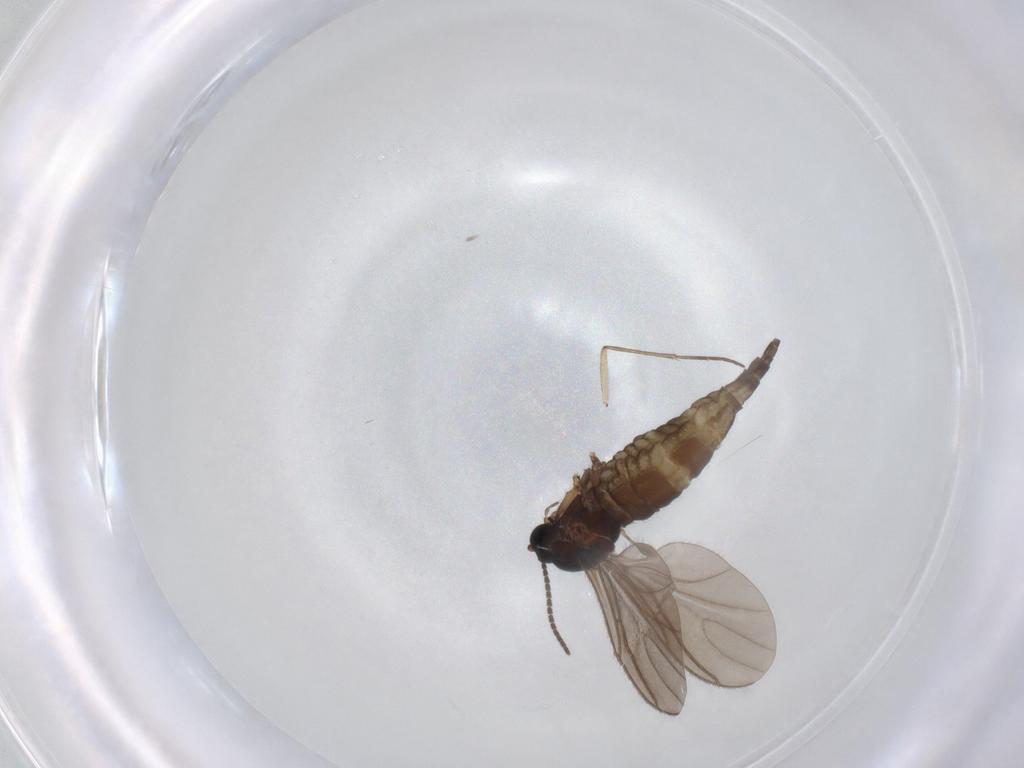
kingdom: Animalia
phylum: Arthropoda
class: Insecta
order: Diptera
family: Sciaridae
